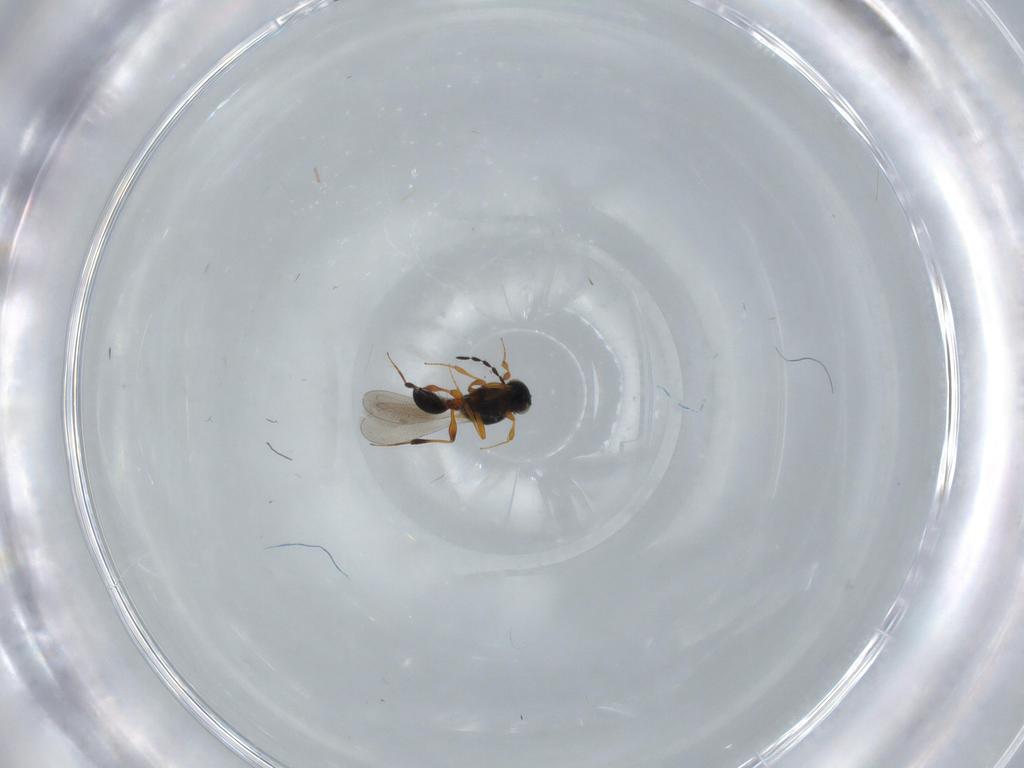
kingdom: Animalia
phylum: Arthropoda
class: Insecta
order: Hymenoptera
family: Platygastridae
